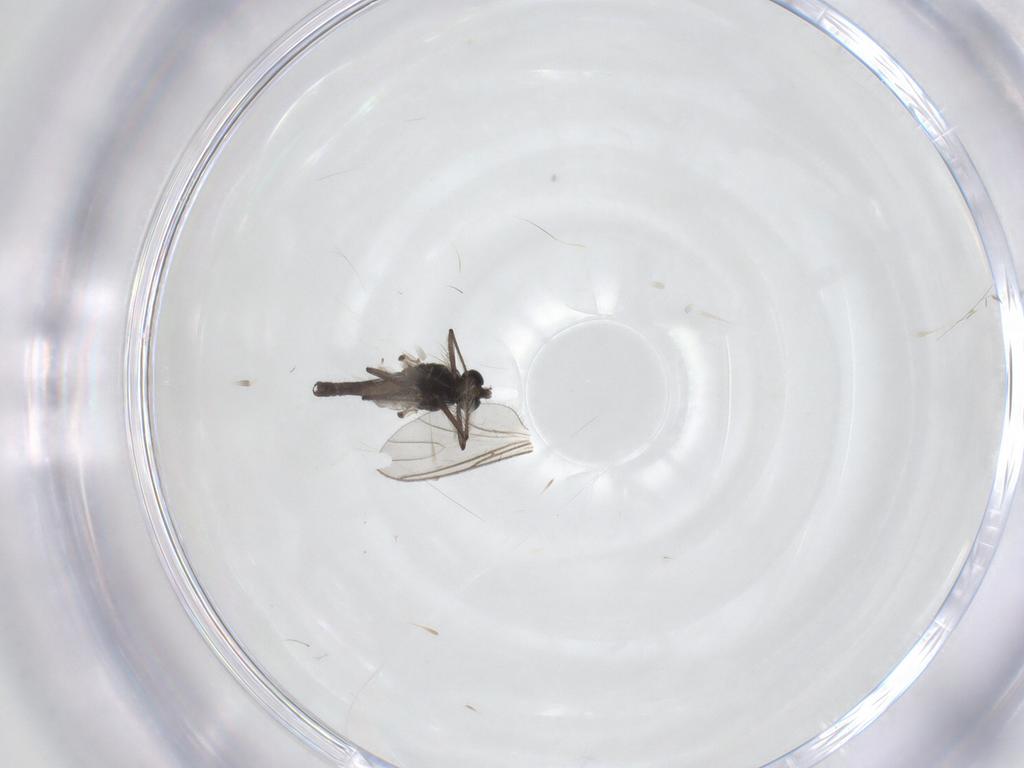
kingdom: Animalia
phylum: Arthropoda
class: Insecta
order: Diptera
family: Chironomidae
